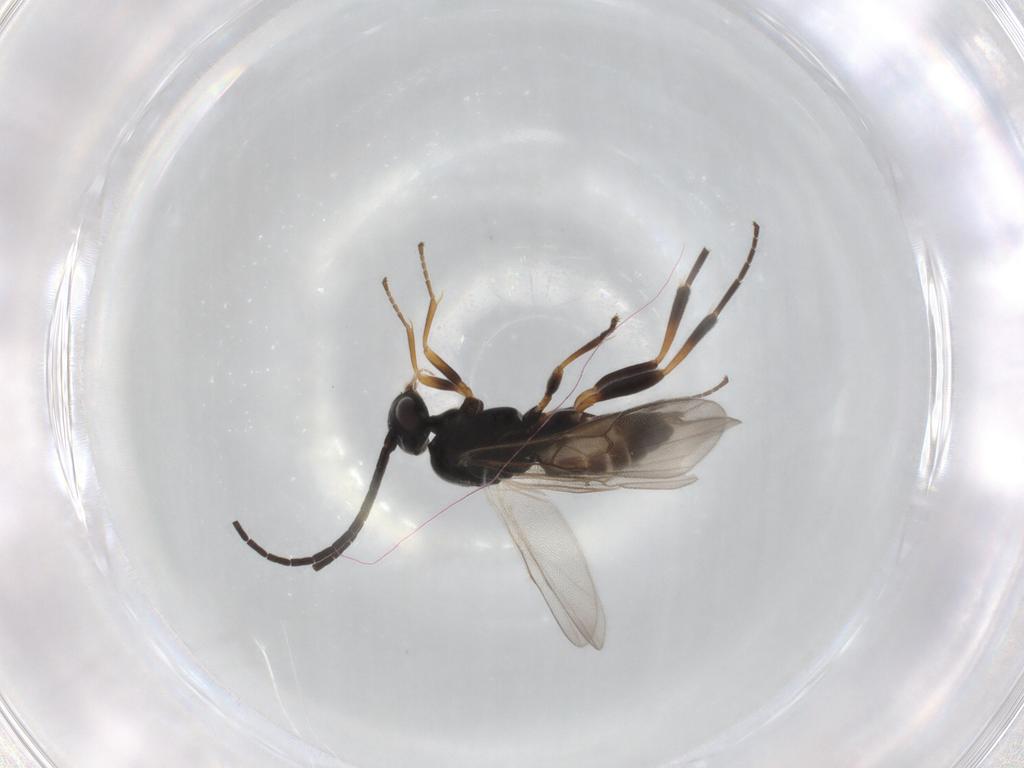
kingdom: Animalia
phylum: Arthropoda
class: Insecta
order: Hymenoptera
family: Braconidae
